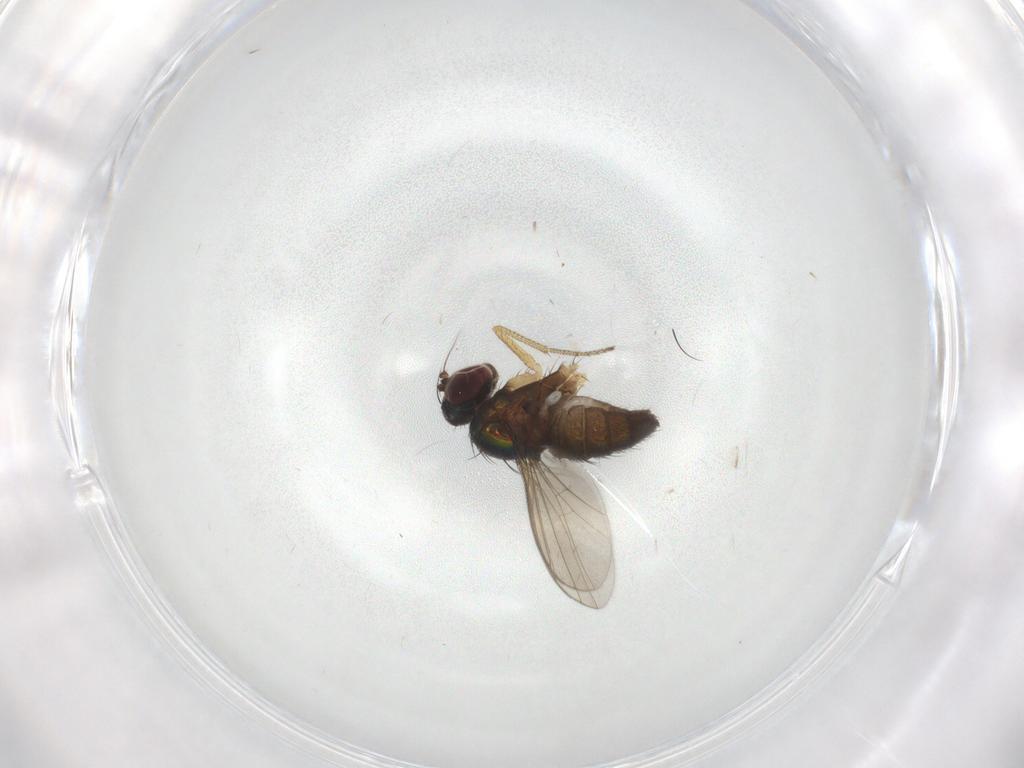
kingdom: Animalia
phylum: Arthropoda
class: Insecta
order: Diptera
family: Dolichopodidae
